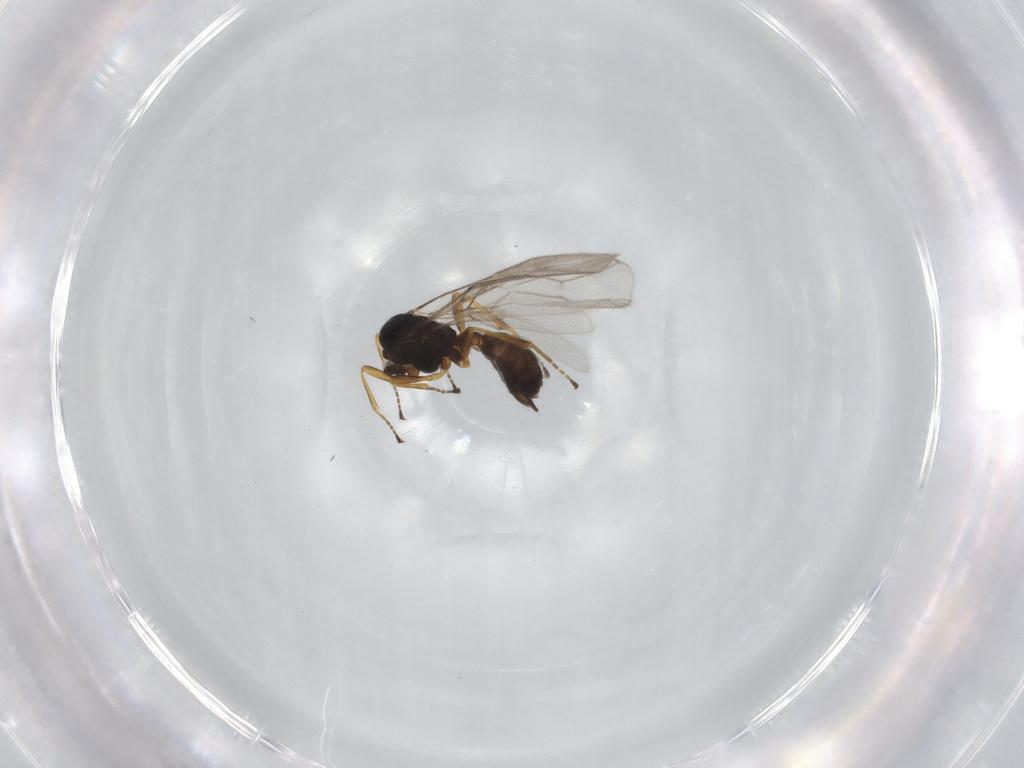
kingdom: Animalia
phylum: Arthropoda
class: Insecta
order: Hymenoptera
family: Braconidae
